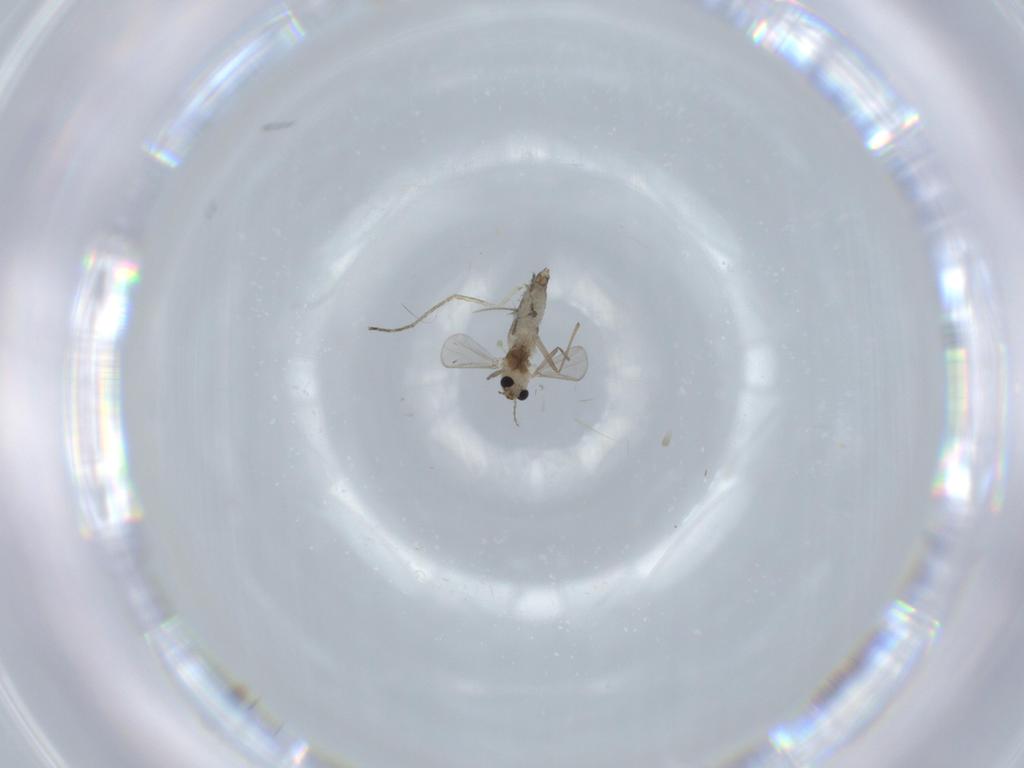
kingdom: Animalia
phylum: Arthropoda
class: Insecta
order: Diptera
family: Chironomidae
